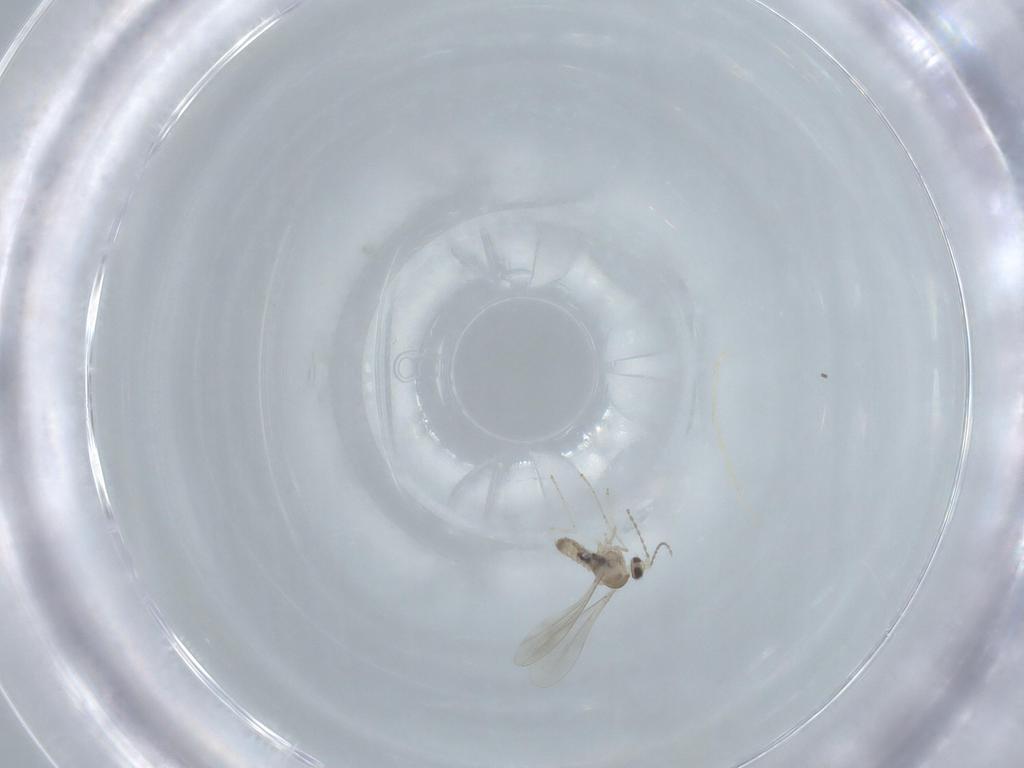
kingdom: Animalia
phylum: Arthropoda
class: Insecta
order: Diptera
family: Cecidomyiidae
